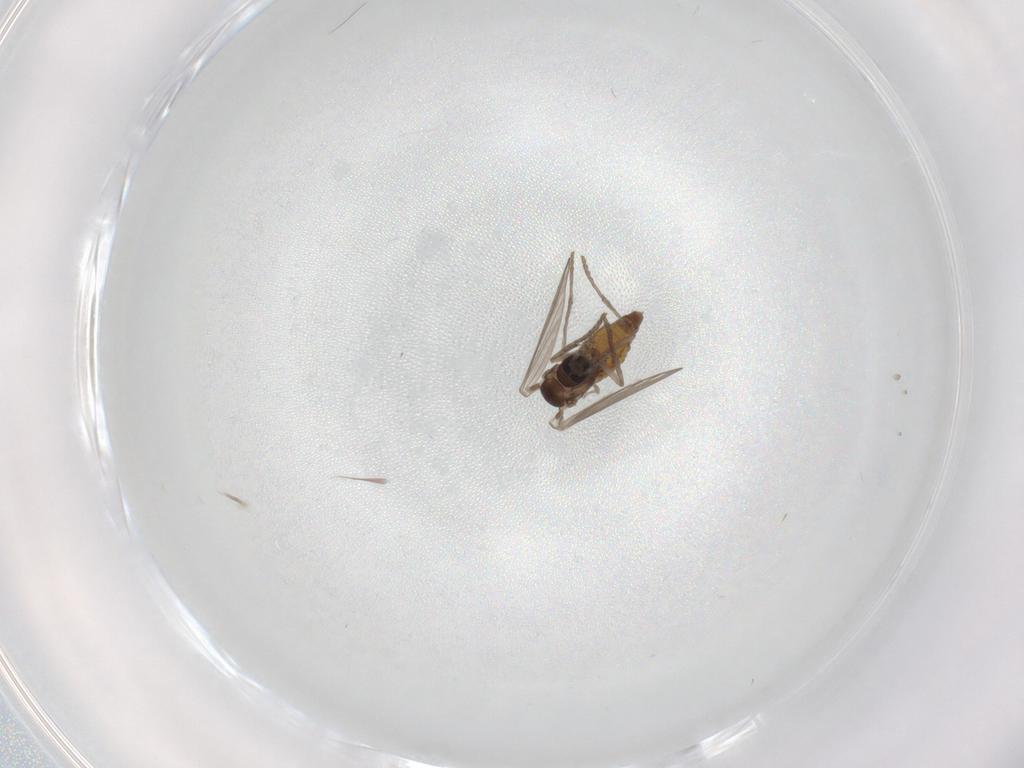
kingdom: Animalia
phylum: Arthropoda
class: Insecta
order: Diptera
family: Psychodidae
